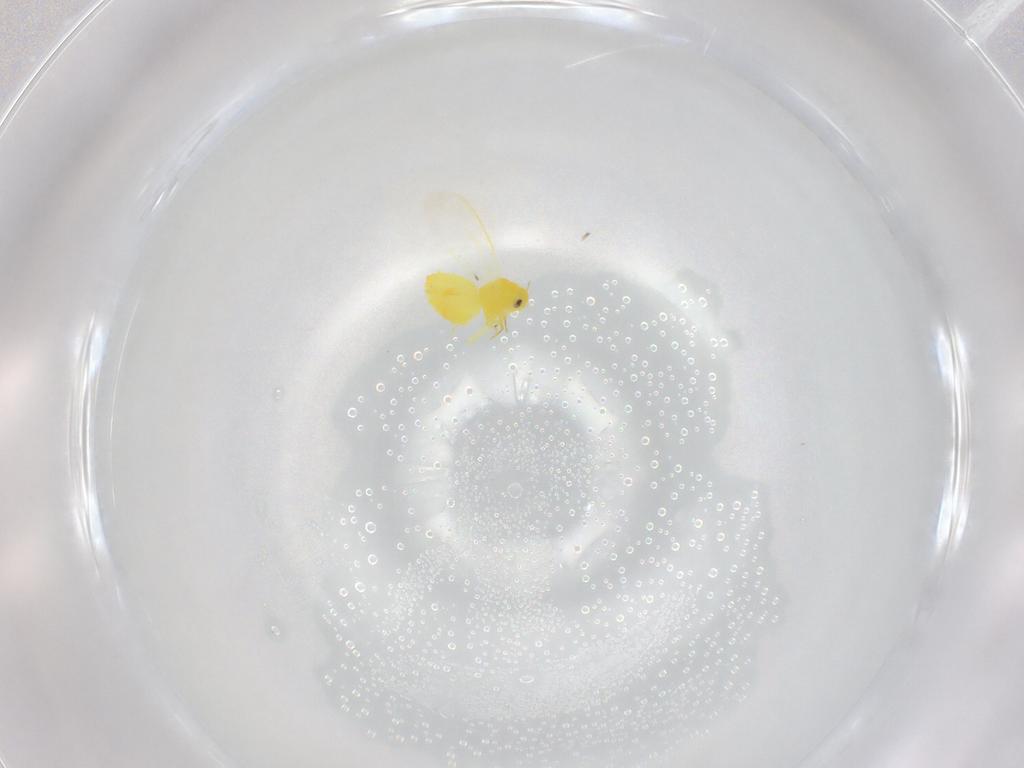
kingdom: Animalia
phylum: Arthropoda
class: Insecta
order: Hemiptera
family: Aleyrodidae
